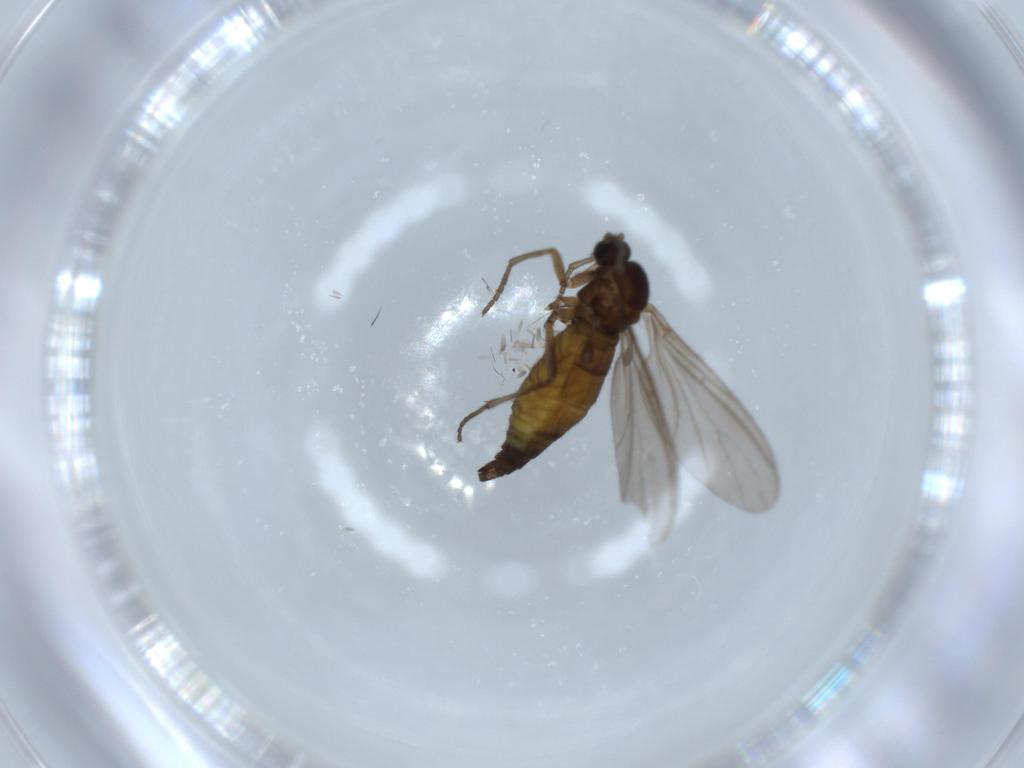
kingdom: Animalia
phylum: Arthropoda
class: Insecta
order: Diptera
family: Sciaridae
